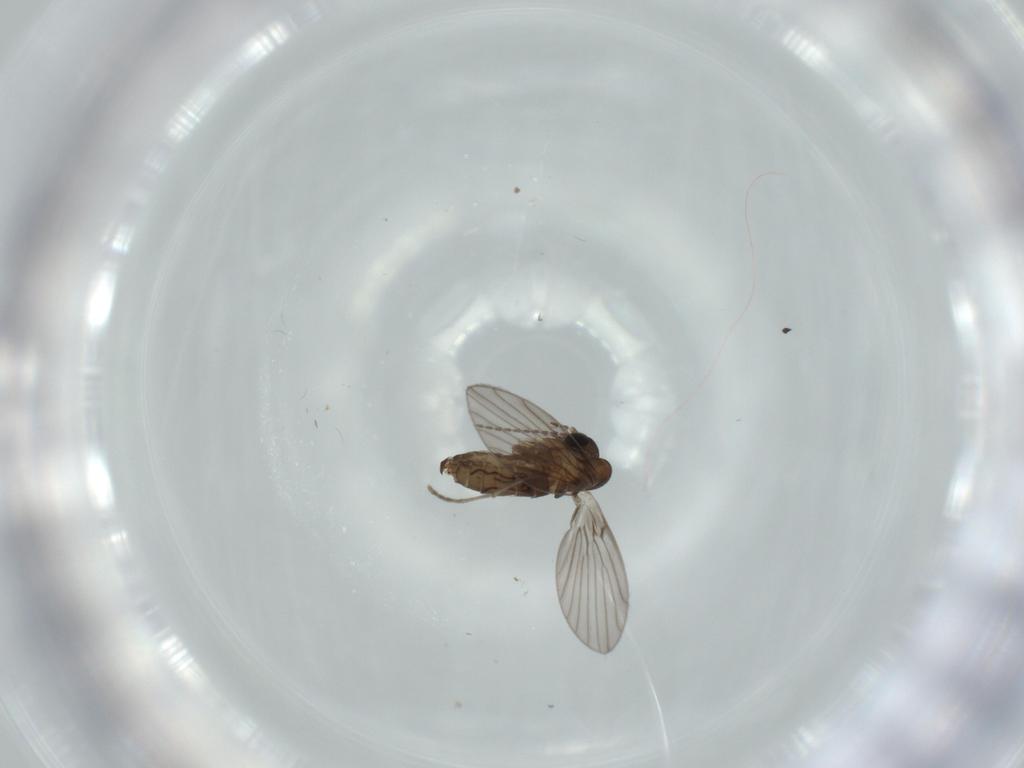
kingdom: Animalia
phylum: Arthropoda
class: Insecta
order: Diptera
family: Psychodidae
